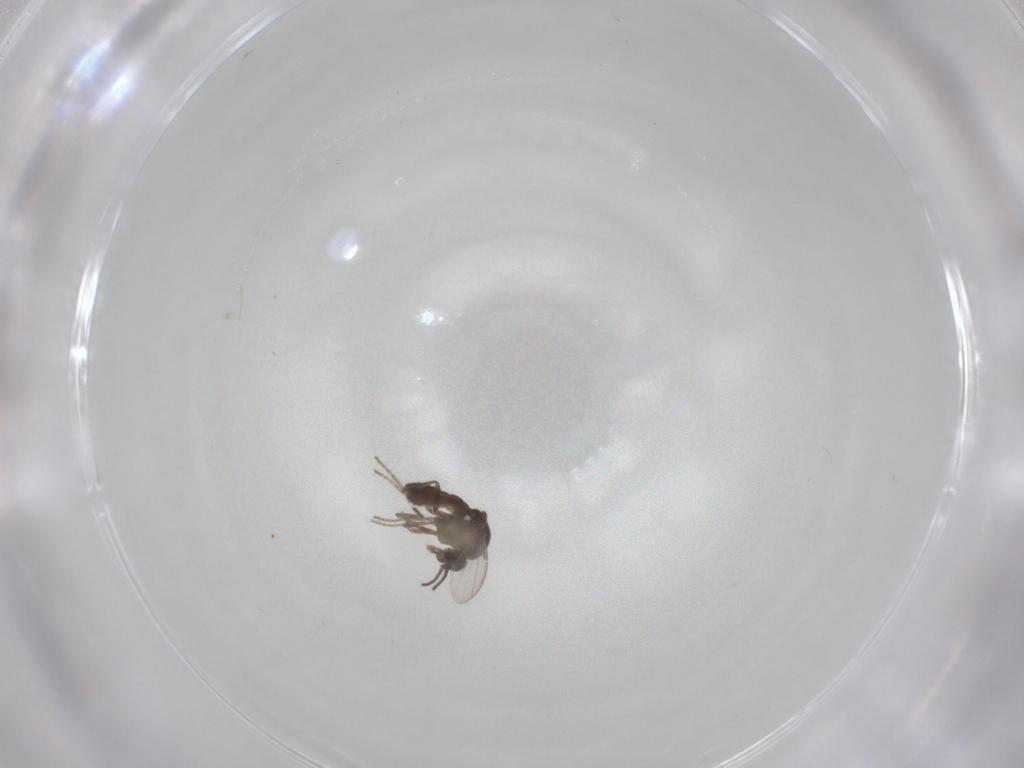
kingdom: Animalia
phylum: Arthropoda
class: Insecta
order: Diptera
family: Ceratopogonidae
